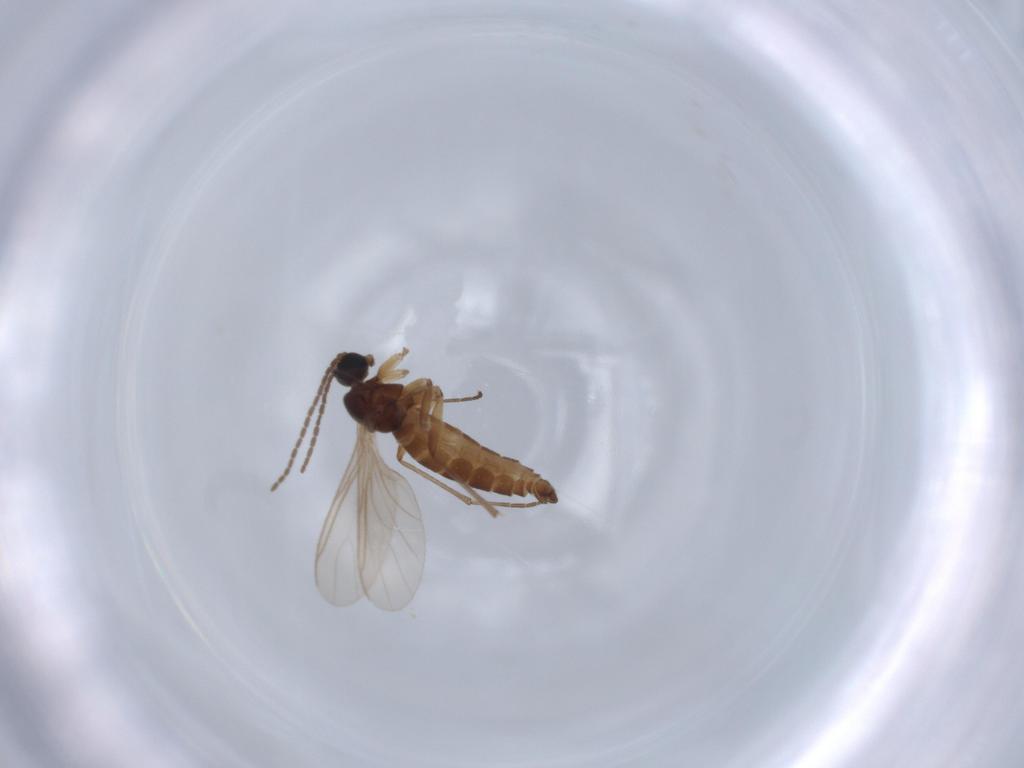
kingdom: Animalia
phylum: Arthropoda
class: Insecta
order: Diptera
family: Sciaridae
